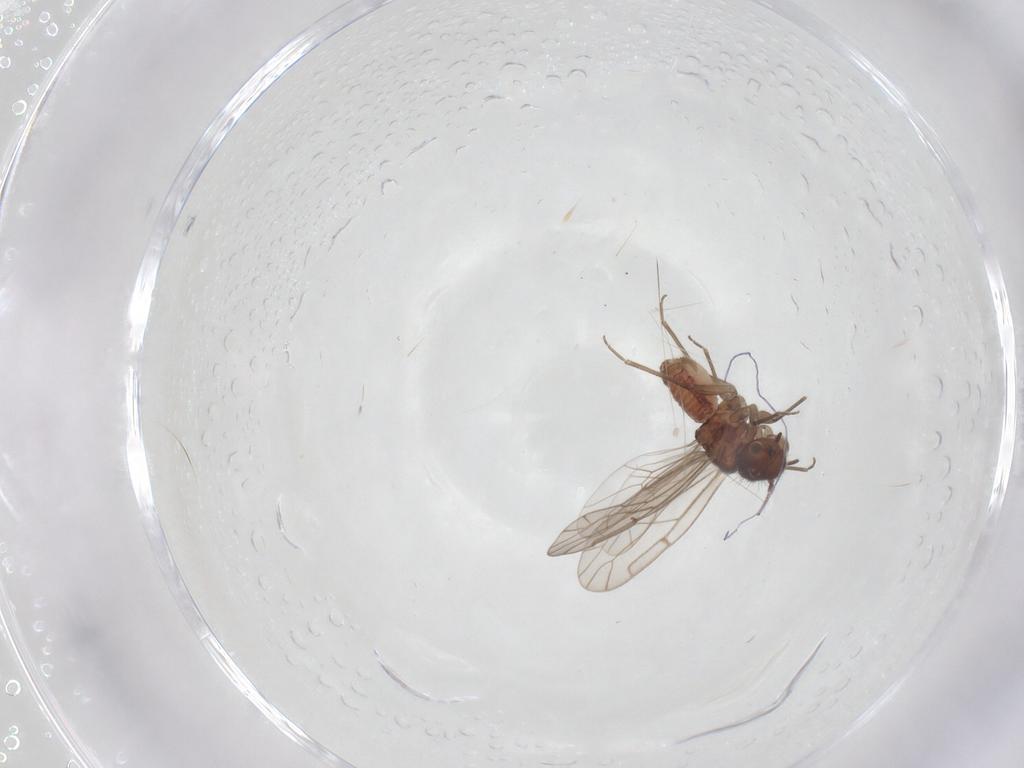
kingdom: Animalia
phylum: Arthropoda
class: Insecta
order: Psocodea
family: Ectopsocidae
